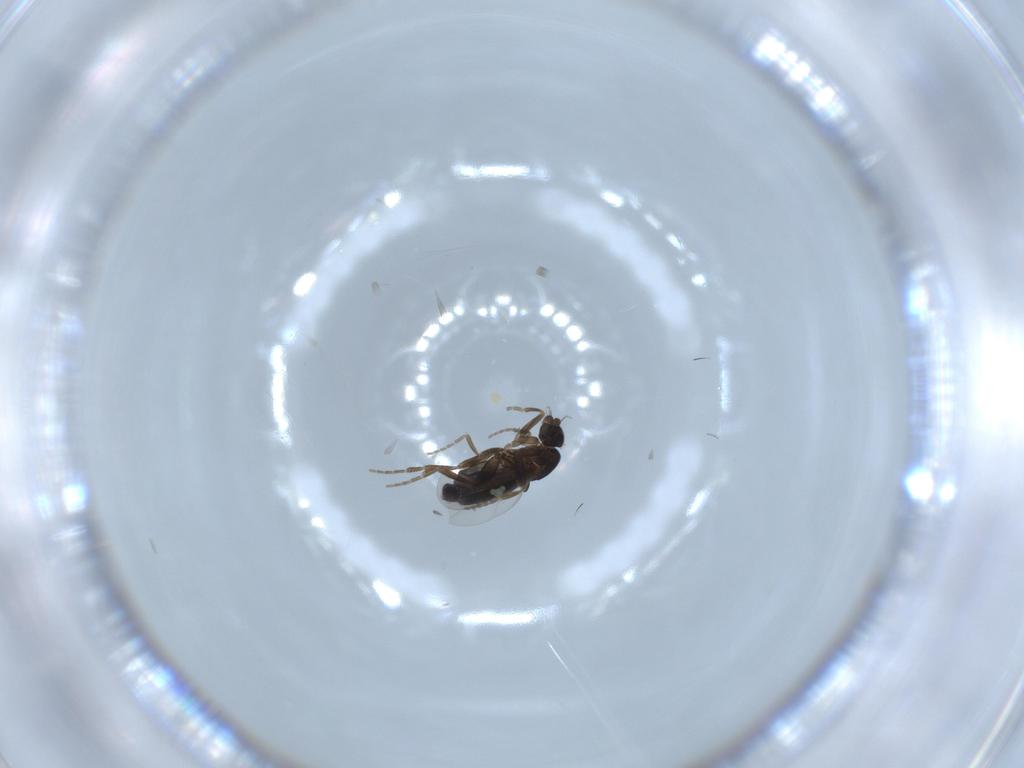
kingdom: Animalia
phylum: Arthropoda
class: Insecta
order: Diptera
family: Phoridae
